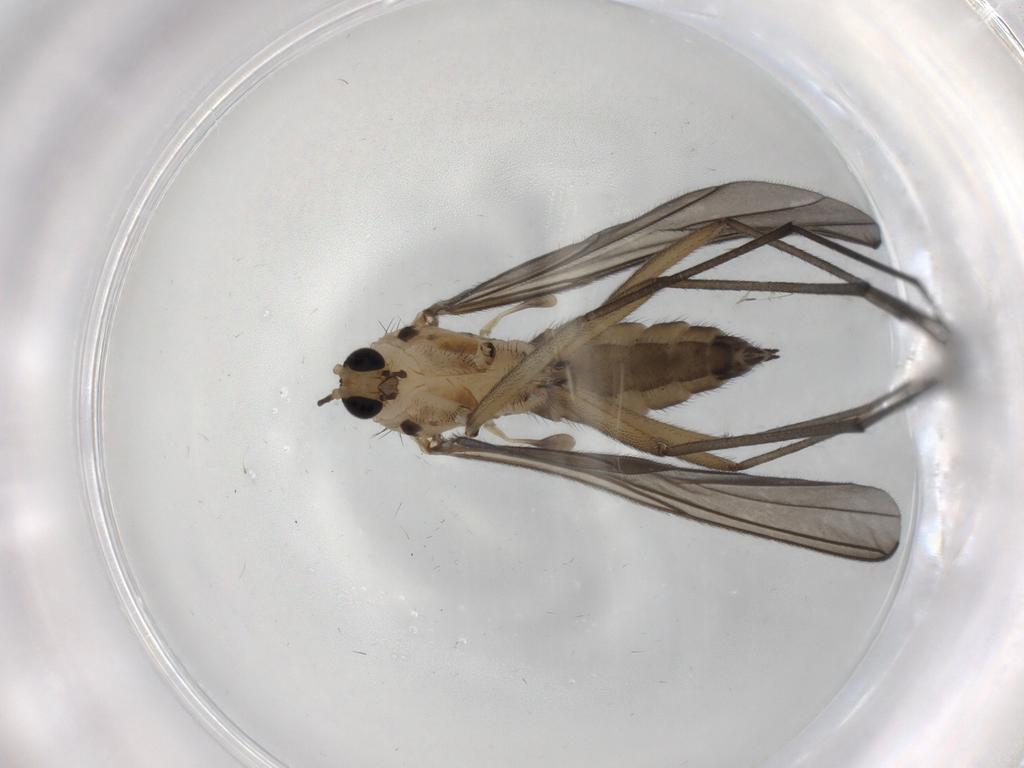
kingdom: Animalia
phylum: Arthropoda
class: Insecta
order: Diptera
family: Sciaridae
